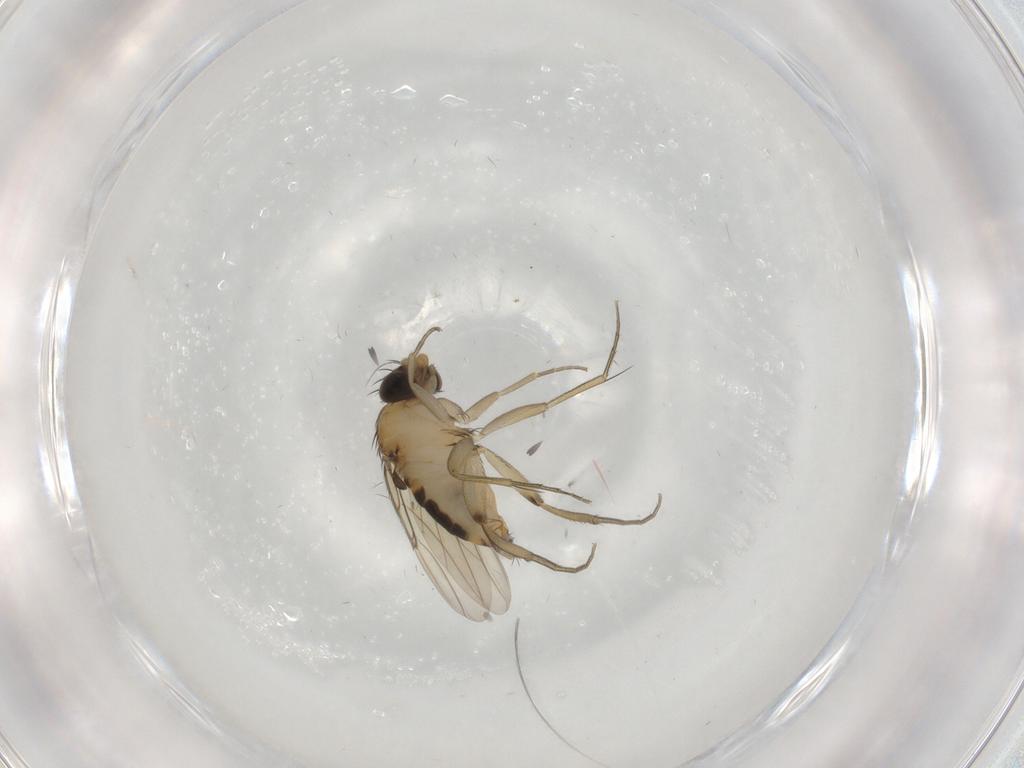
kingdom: Animalia
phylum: Arthropoda
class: Insecta
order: Diptera
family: Phoridae
